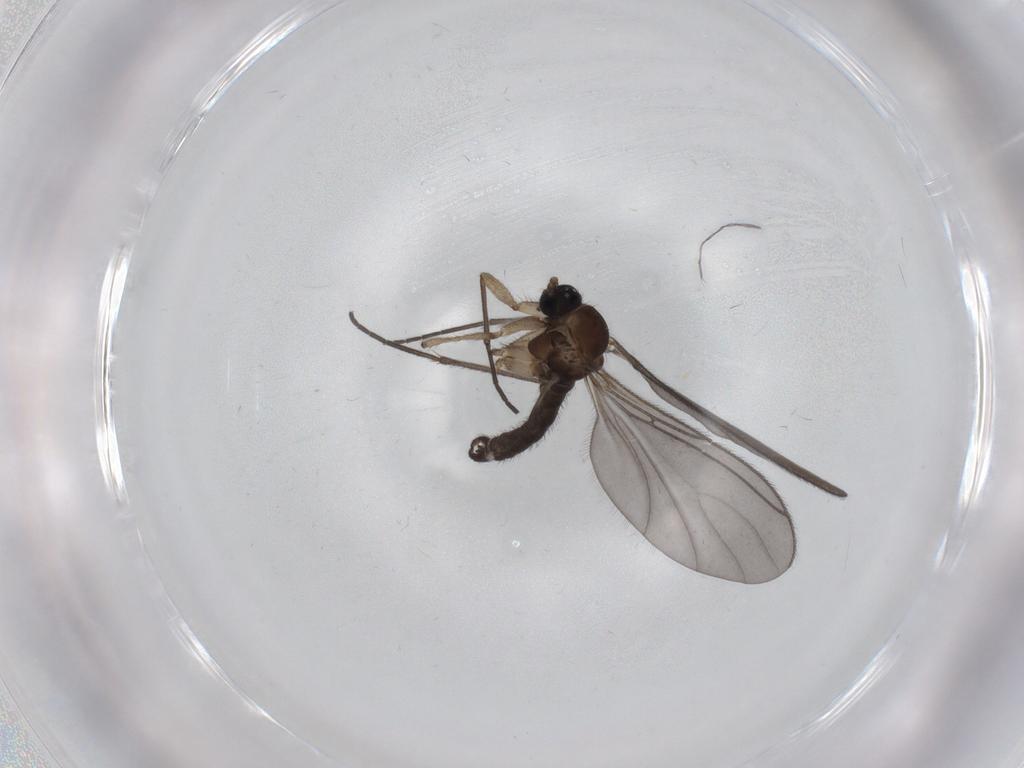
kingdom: Animalia
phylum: Arthropoda
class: Insecta
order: Diptera
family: Sciaridae
